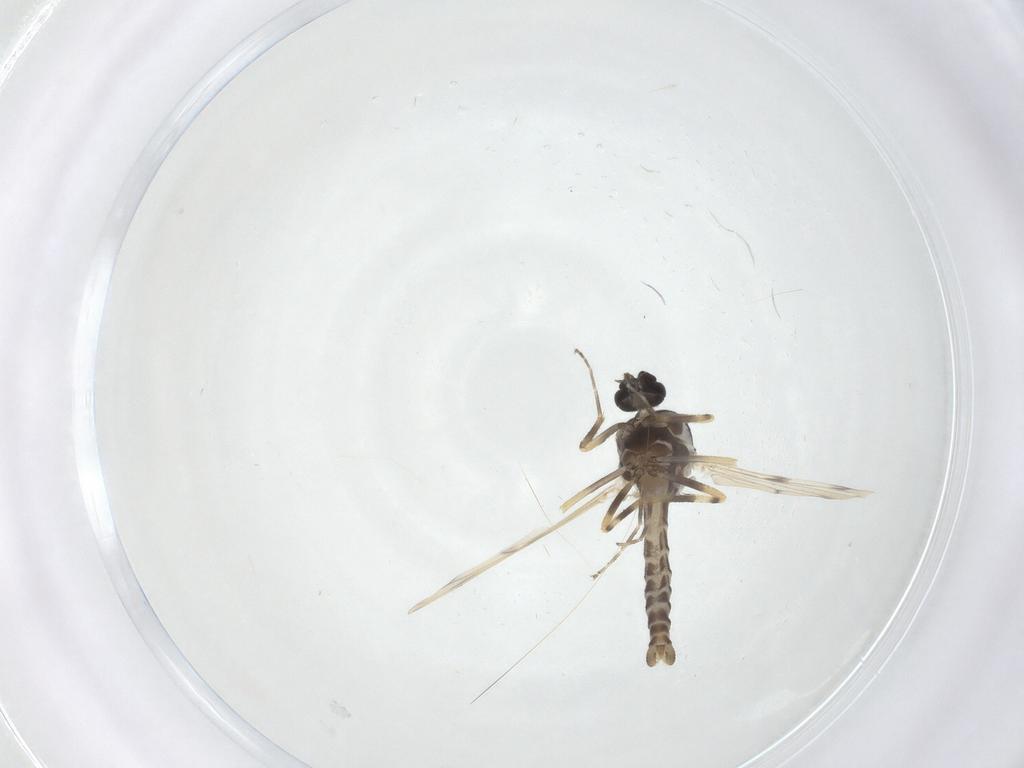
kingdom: Animalia
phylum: Arthropoda
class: Insecta
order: Diptera
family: Ceratopogonidae
